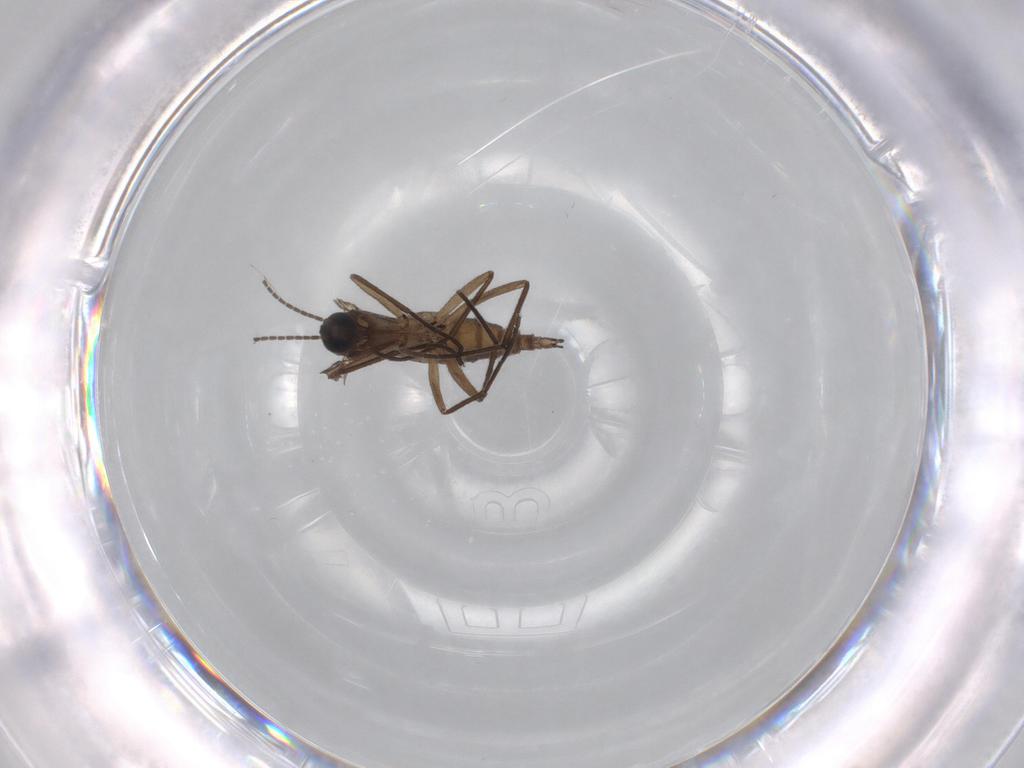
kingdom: Animalia
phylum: Arthropoda
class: Insecta
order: Diptera
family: Sciaridae
